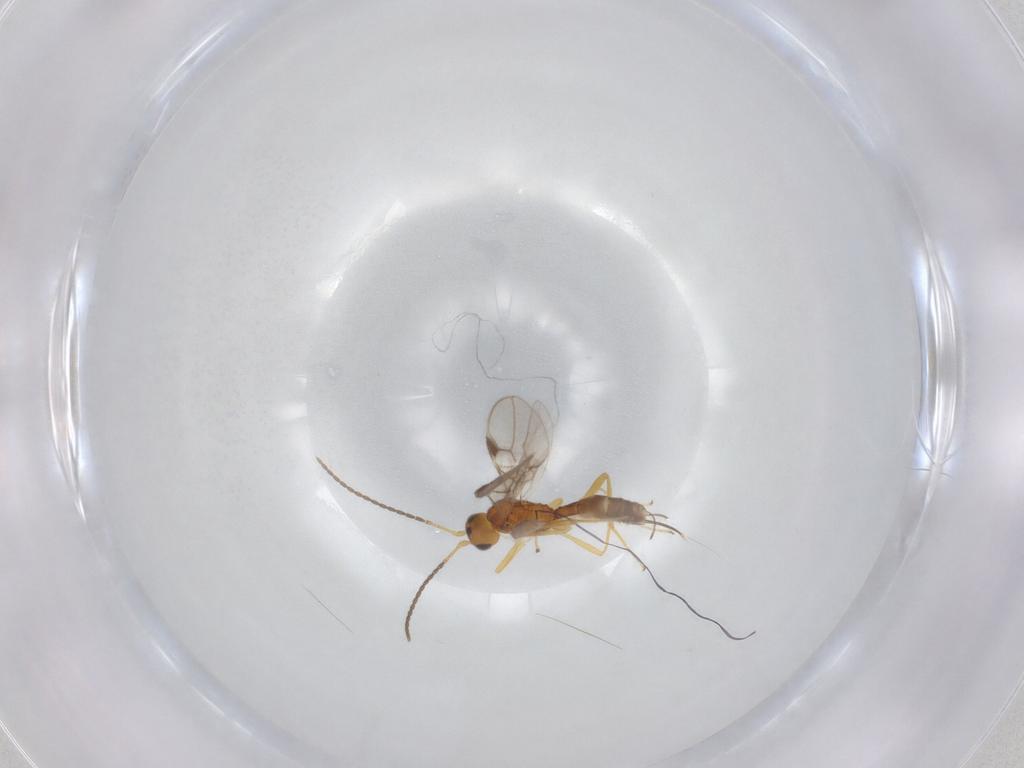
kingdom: Animalia
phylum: Arthropoda
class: Insecta
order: Hymenoptera
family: Braconidae
